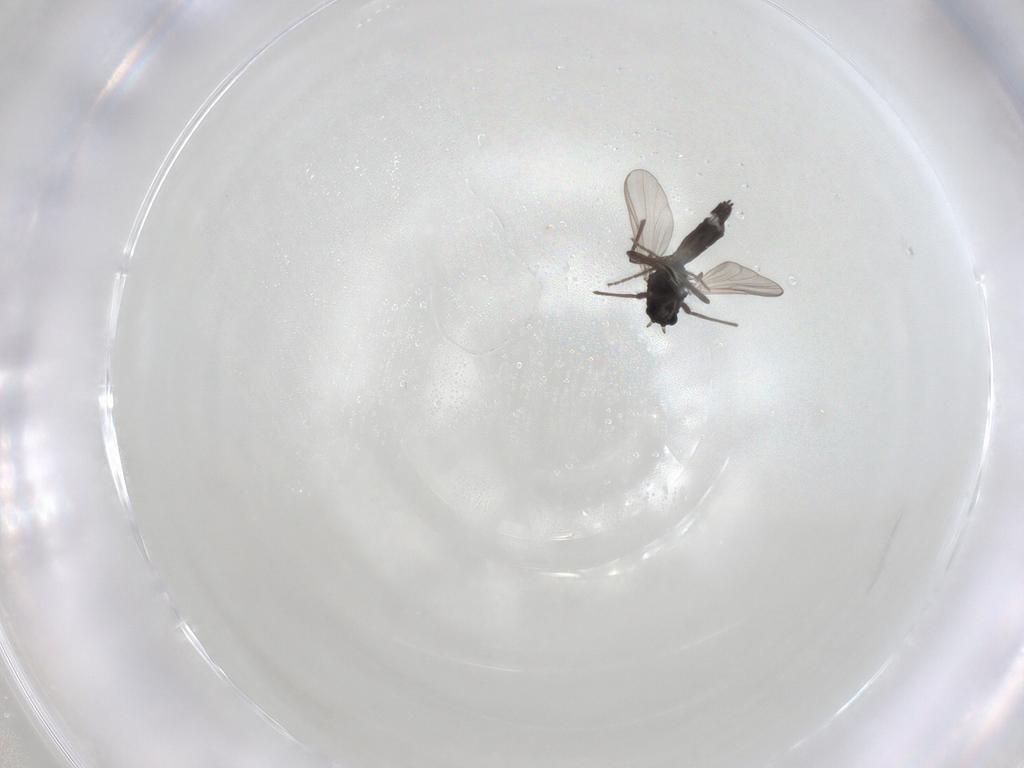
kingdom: Animalia
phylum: Arthropoda
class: Insecta
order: Diptera
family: Chironomidae
